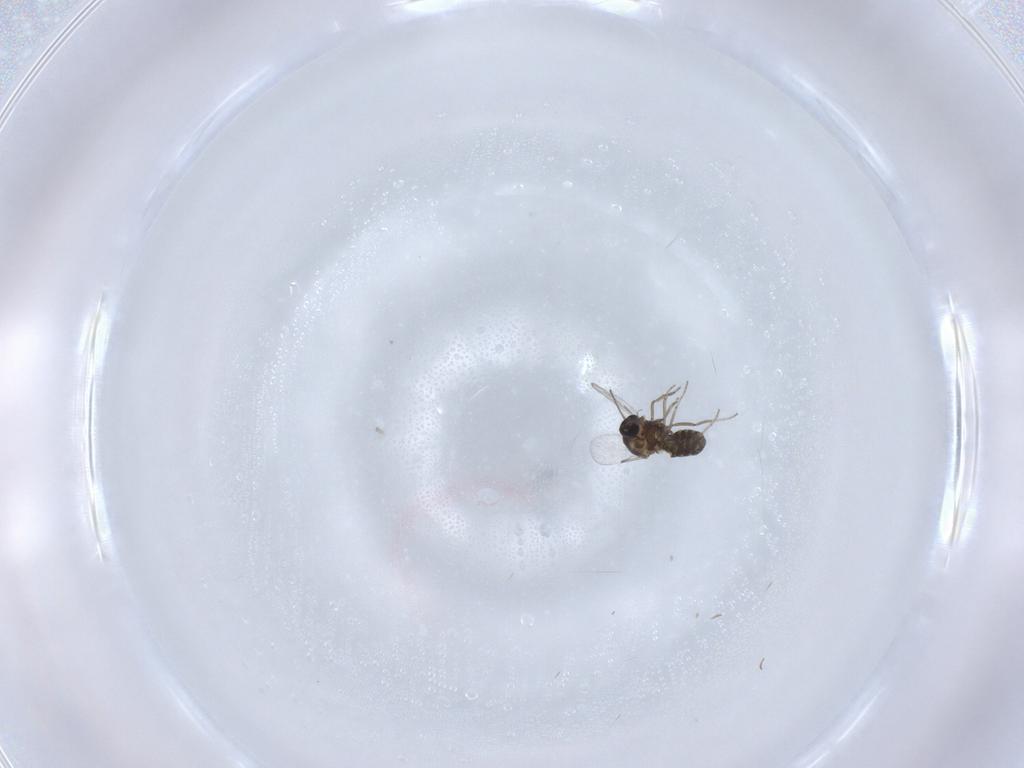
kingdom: Animalia
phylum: Arthropoda
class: Insecta
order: Diptera
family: Ceratopogonidae
